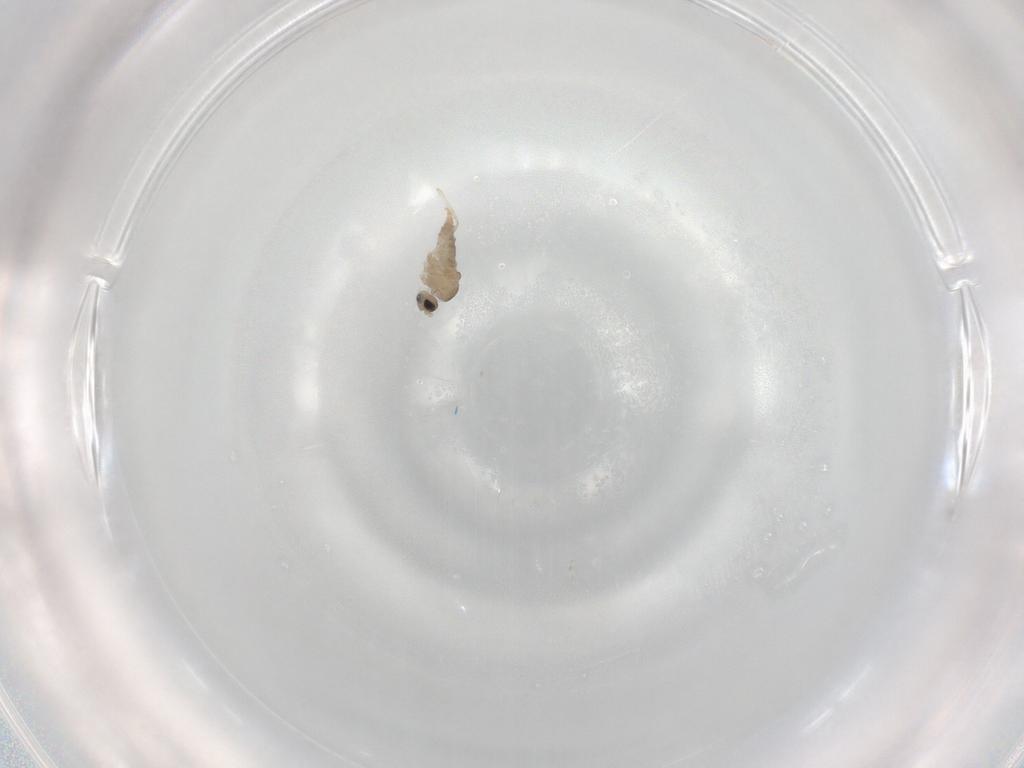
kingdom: Animalia
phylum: Arthropoda
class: Insecta
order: Diptera
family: Cecidomyiidae
